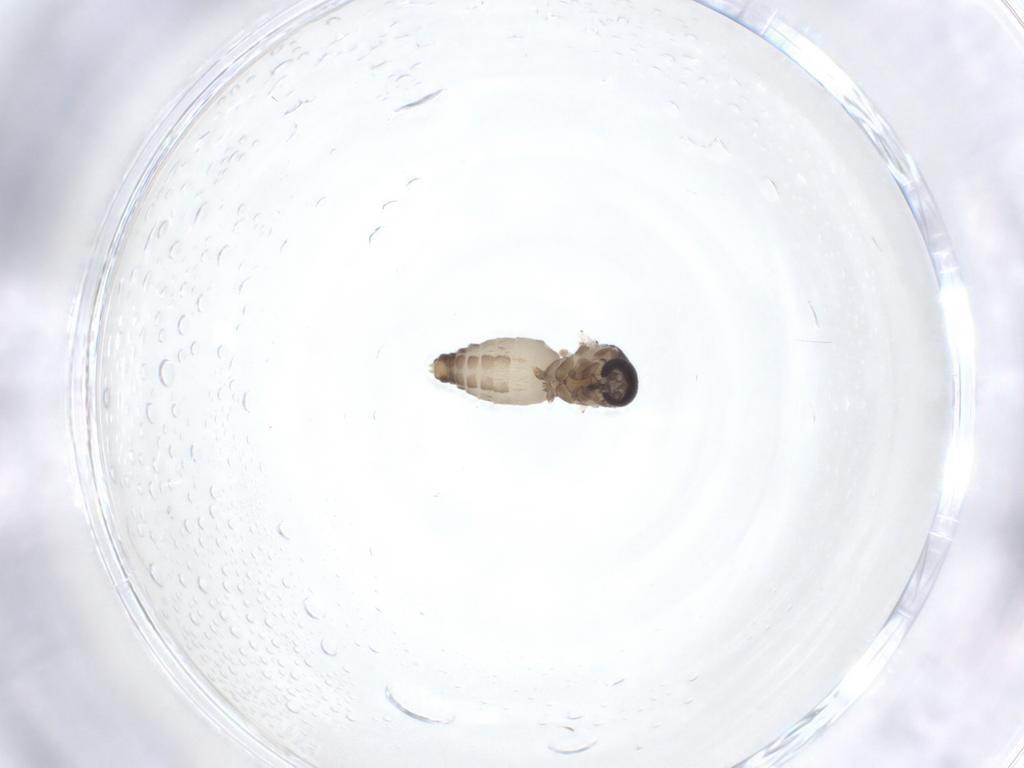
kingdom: Animalia
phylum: Arthropoda
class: Insecta
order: Diptera
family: Ceratopogonidae
